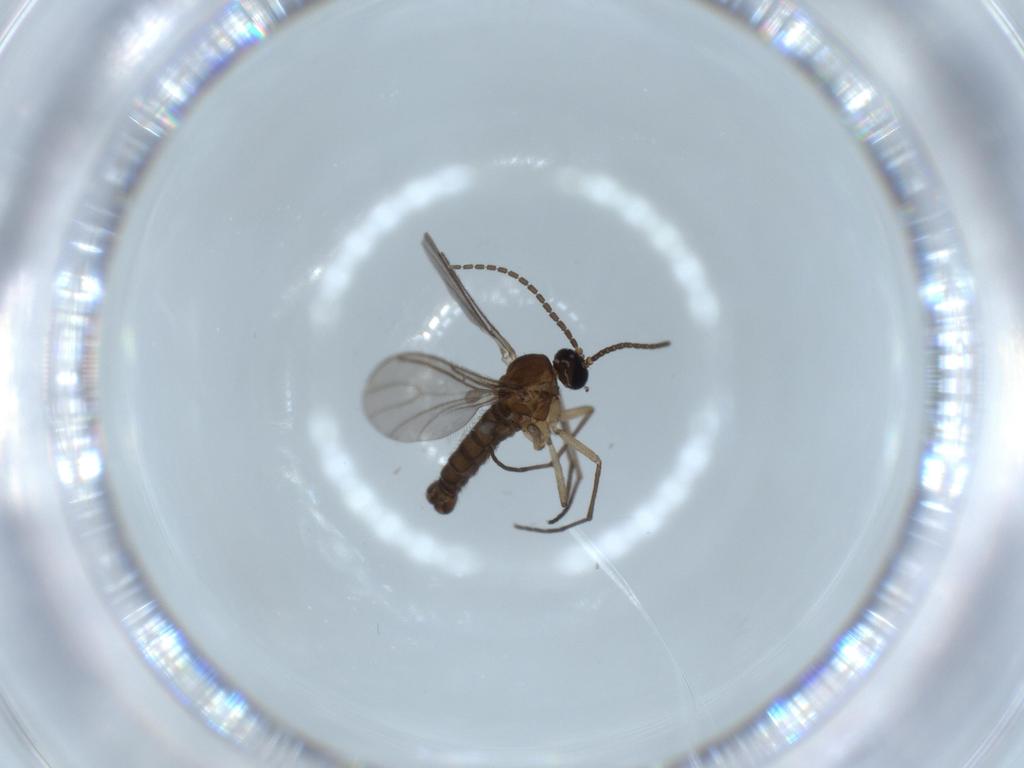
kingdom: Animalia
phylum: Arthropoda
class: Insecta
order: Diptera
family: Sciaridae
